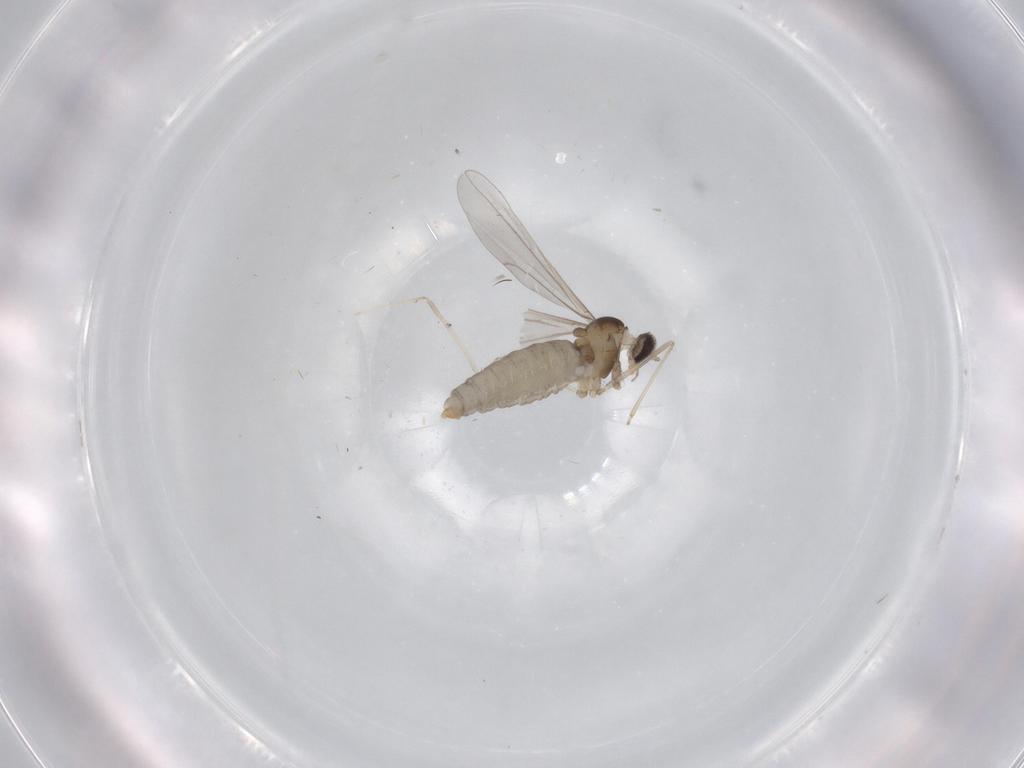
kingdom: Animalia
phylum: Arthropoda
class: Insecta
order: Diptera
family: Cecidomyiidae
